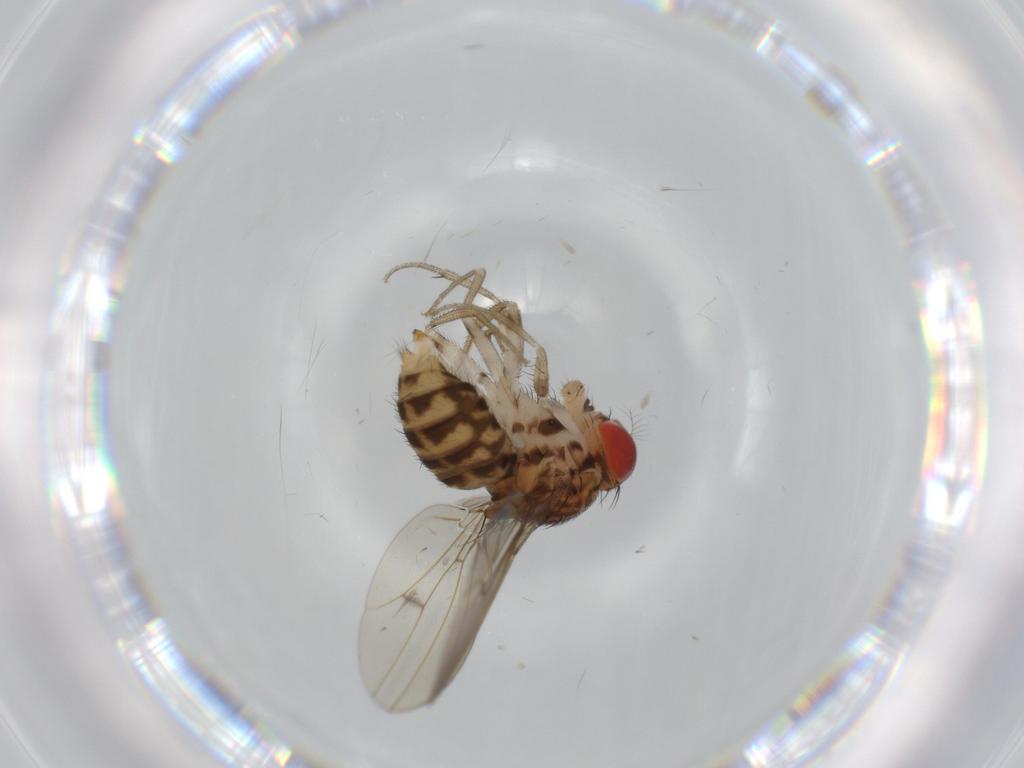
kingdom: Animalia
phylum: Arthropoda
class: Insecta
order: Diptera
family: Drosophilidae
